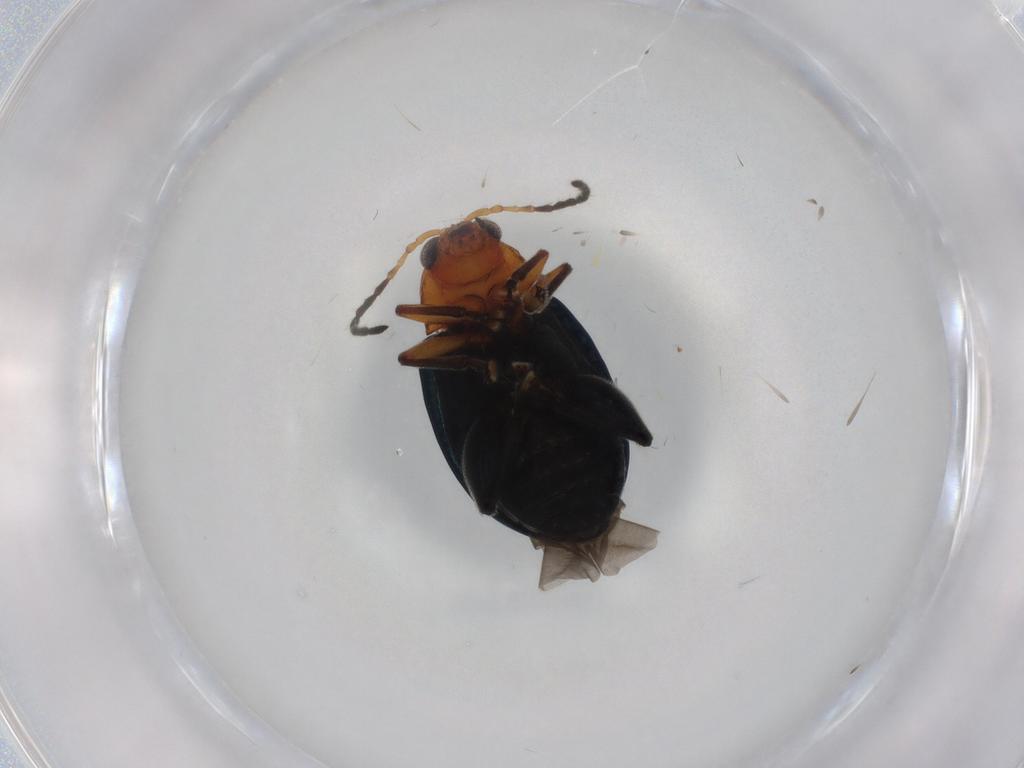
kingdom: Animalia
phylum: Arthropoda
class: Insecta
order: Coleoptera
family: Chrysomelidae
